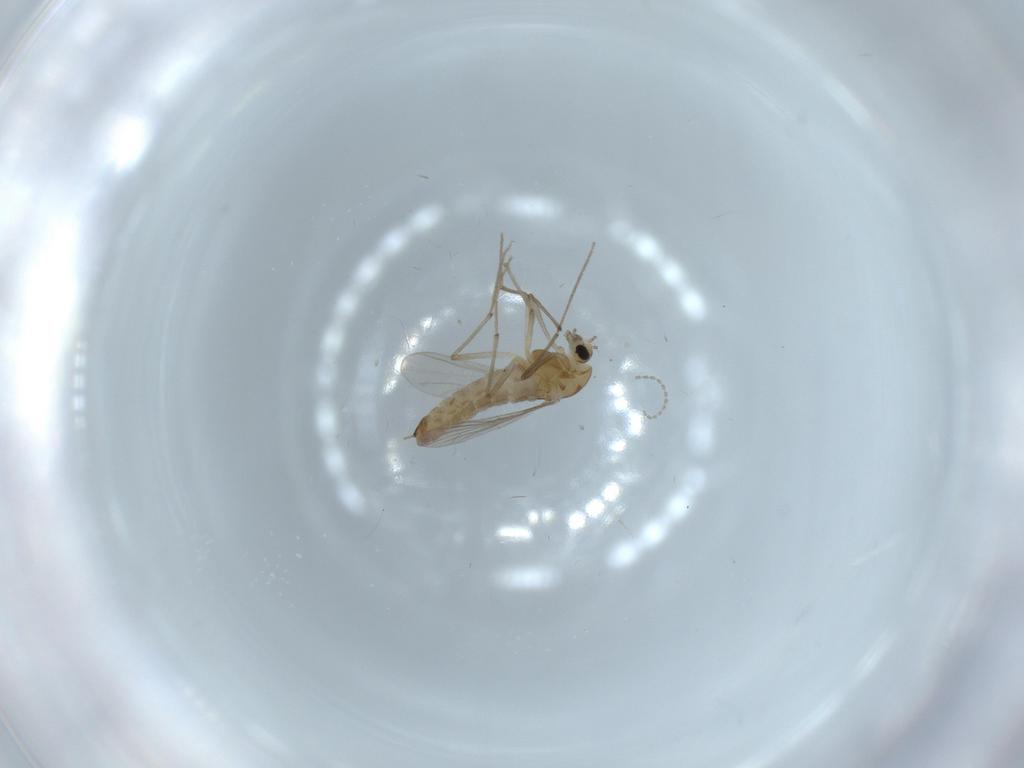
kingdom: Animalia
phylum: Arthropoda
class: Insecta
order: Diptera
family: Chironomidae
